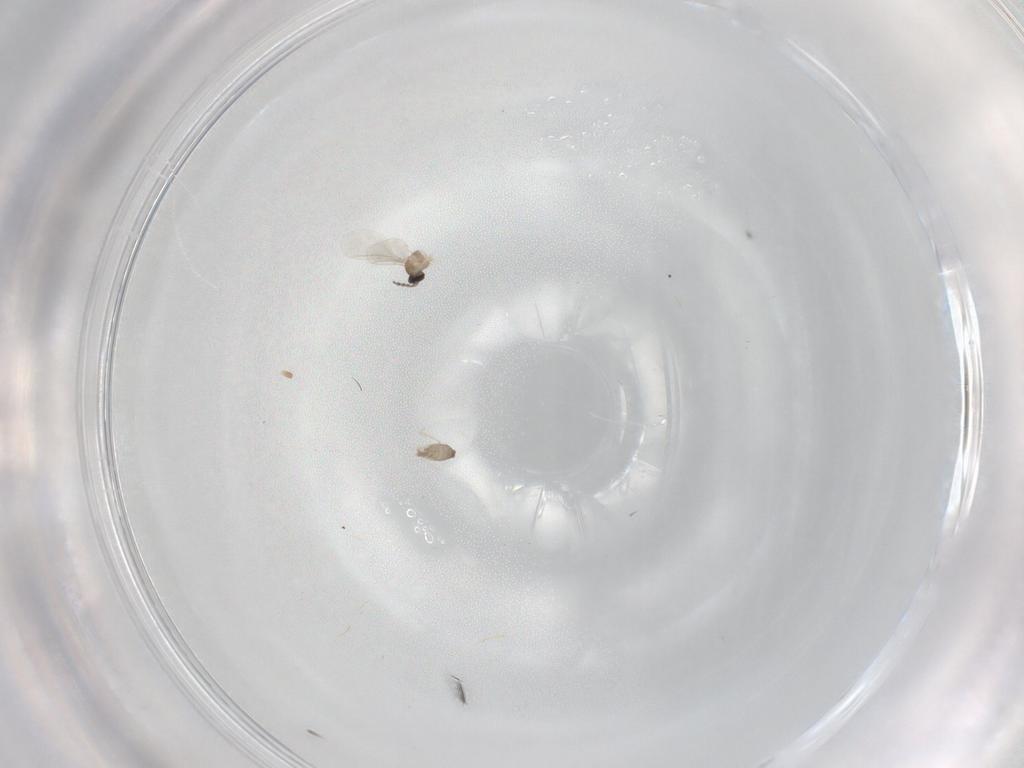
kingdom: Animalia
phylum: Arthropoda
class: Insecta
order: Diptera
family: Cecidomyiidae
